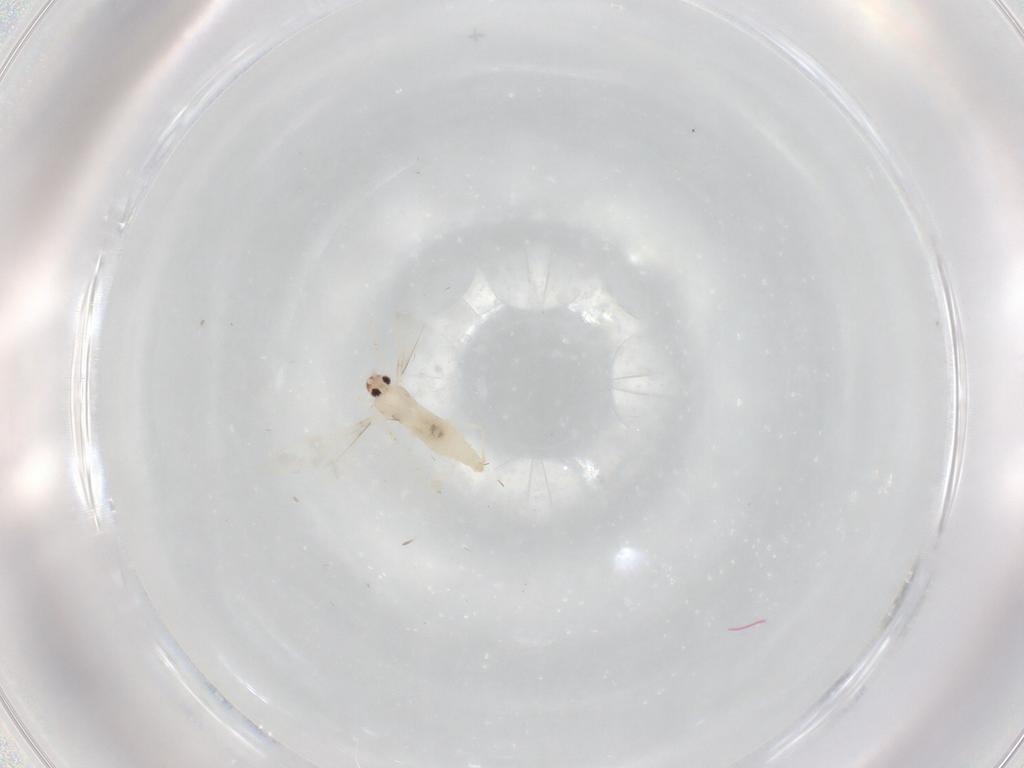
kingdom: Animalia
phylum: Arthropoda
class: Insecta
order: Diptera
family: Cecidomyiidae
